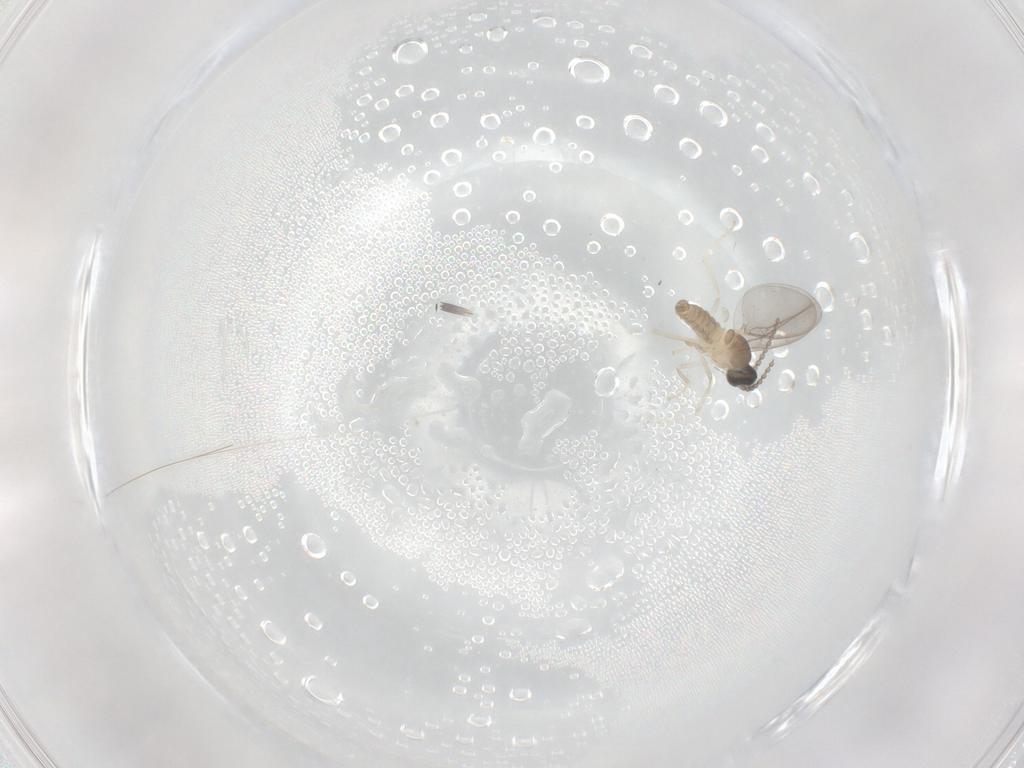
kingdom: Animalia
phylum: Arthropoda
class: Insecta
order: Diptera
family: Cecidomyiidae
